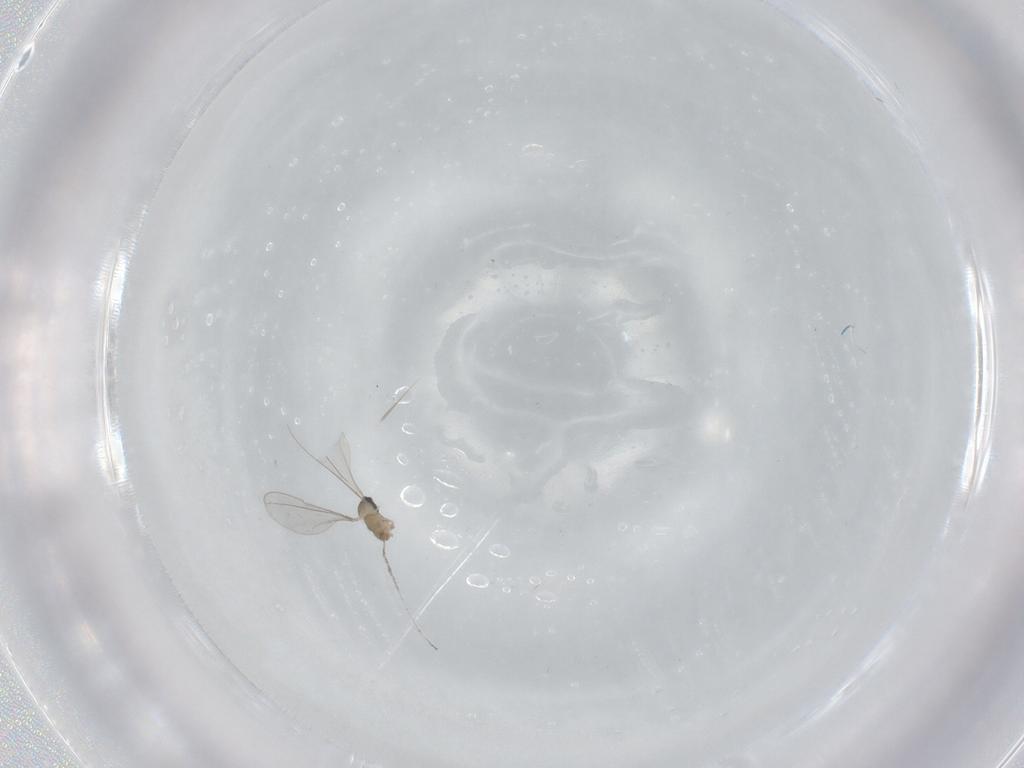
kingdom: Animalia
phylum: Arthropoda
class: Insecta
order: Diptera
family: Cecidomyiidae
